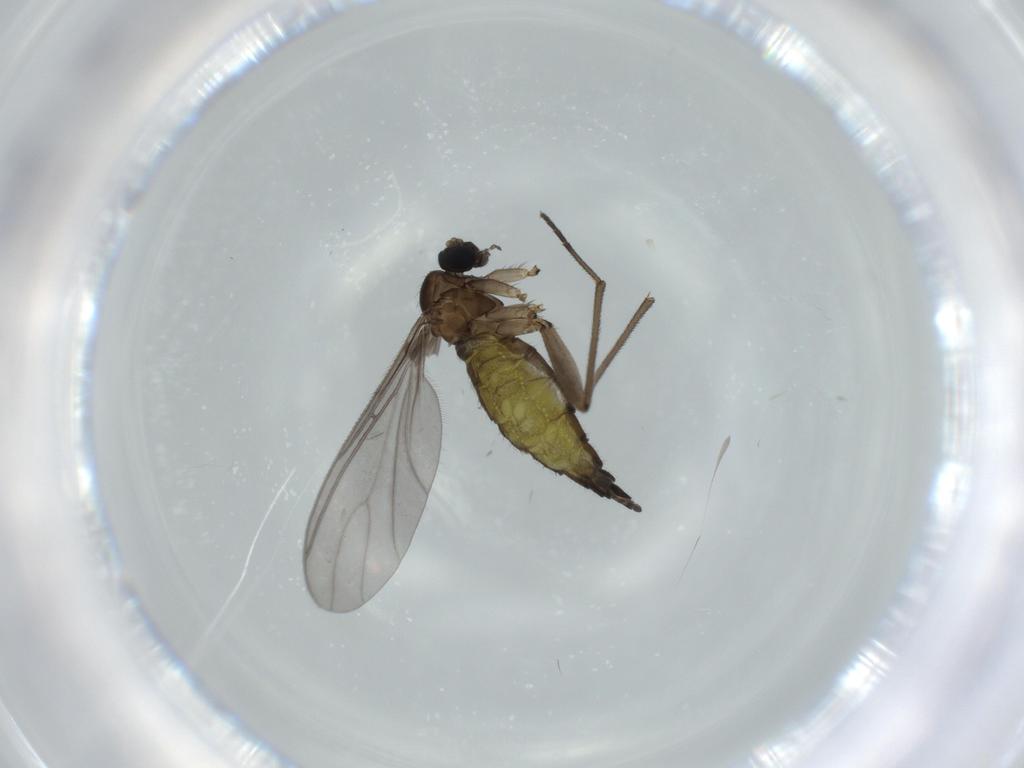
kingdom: Animalia
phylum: Arthropoda
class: Insecta
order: Diptera
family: Sciaridae
